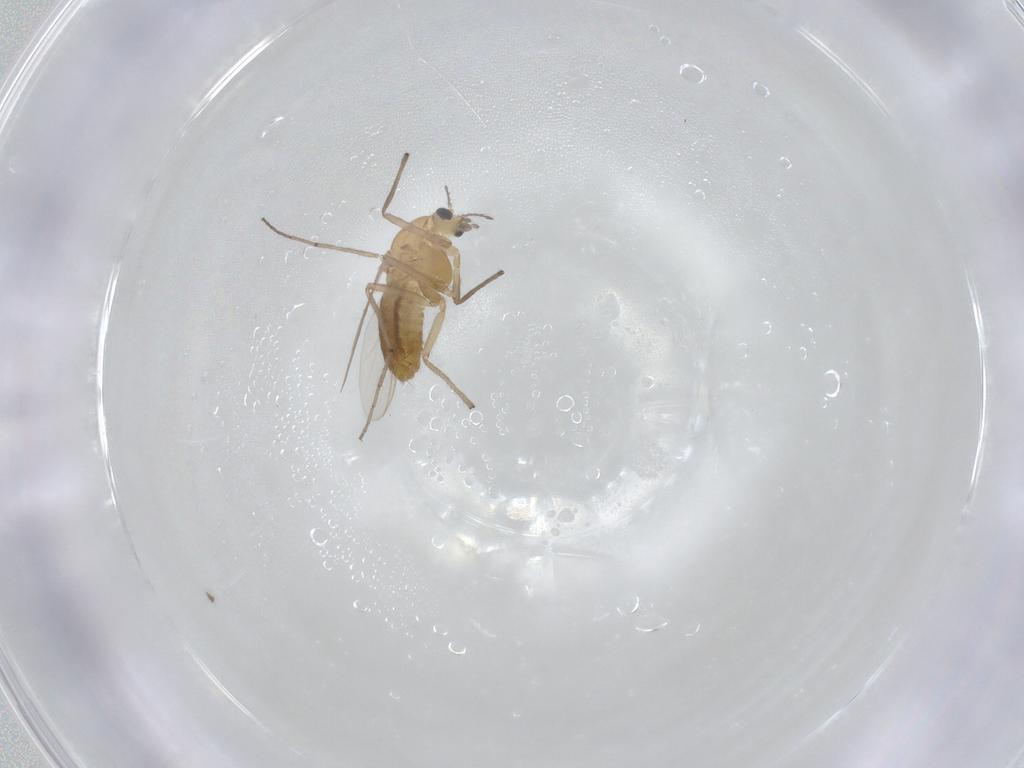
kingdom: Animalia
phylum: Arthropoda
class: Insecta
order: Diptera
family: Chironomidae
